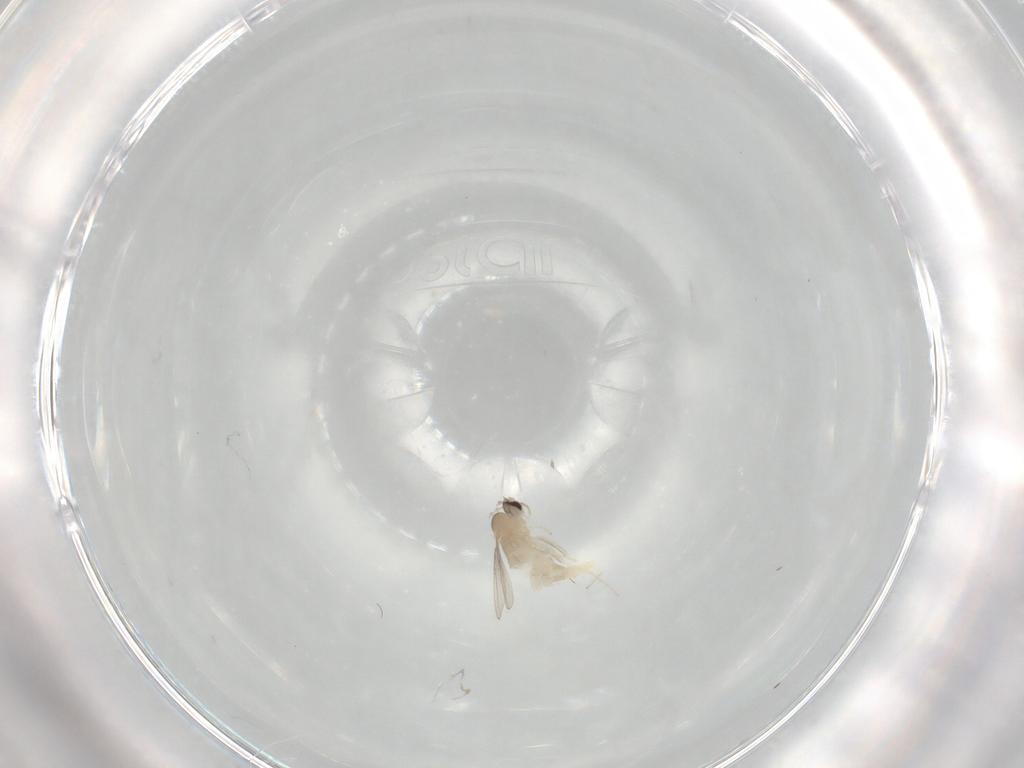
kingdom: Animalia
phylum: Arthropoda
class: Insecta
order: Diptera
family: Cecidomyiidae
